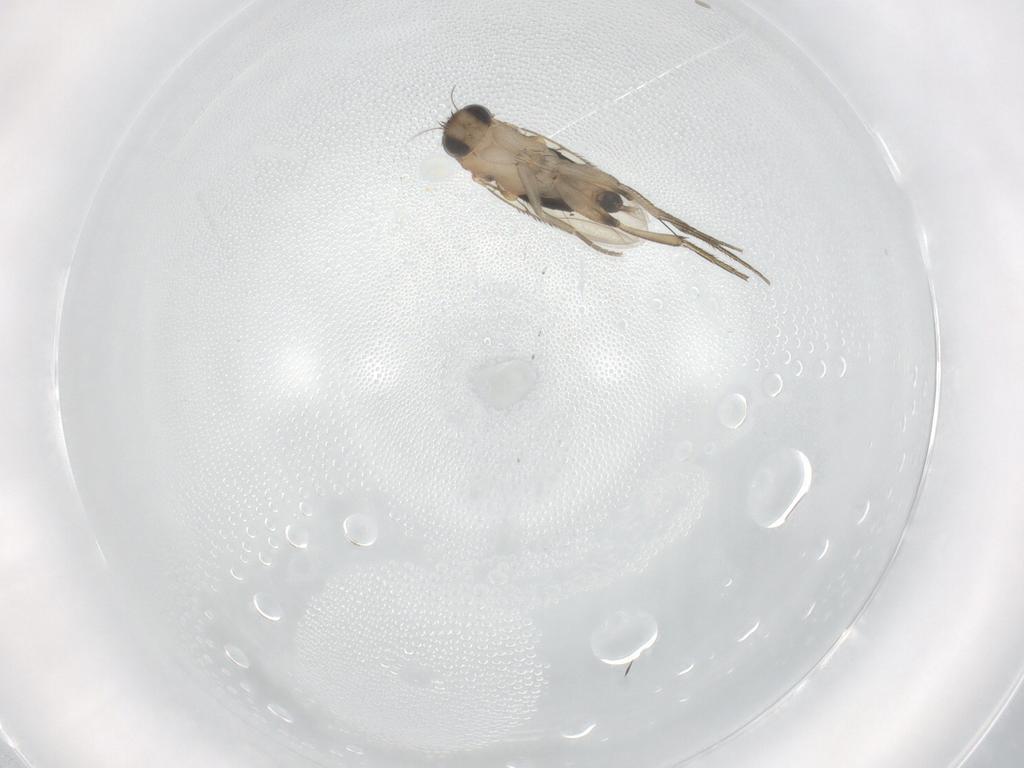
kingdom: Animalia
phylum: Arthropoda
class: Insecta
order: Diptera
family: Phoridae
